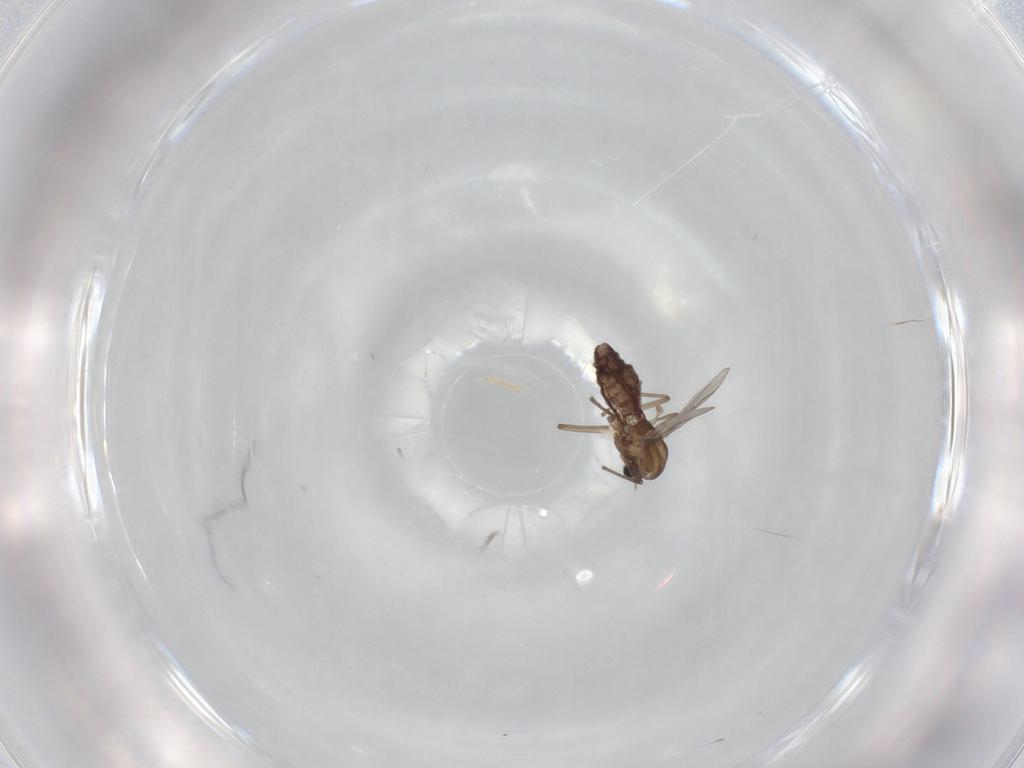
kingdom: Animalia
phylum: Arthropoda
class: Insecta
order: Diptera
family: Chironomidae
